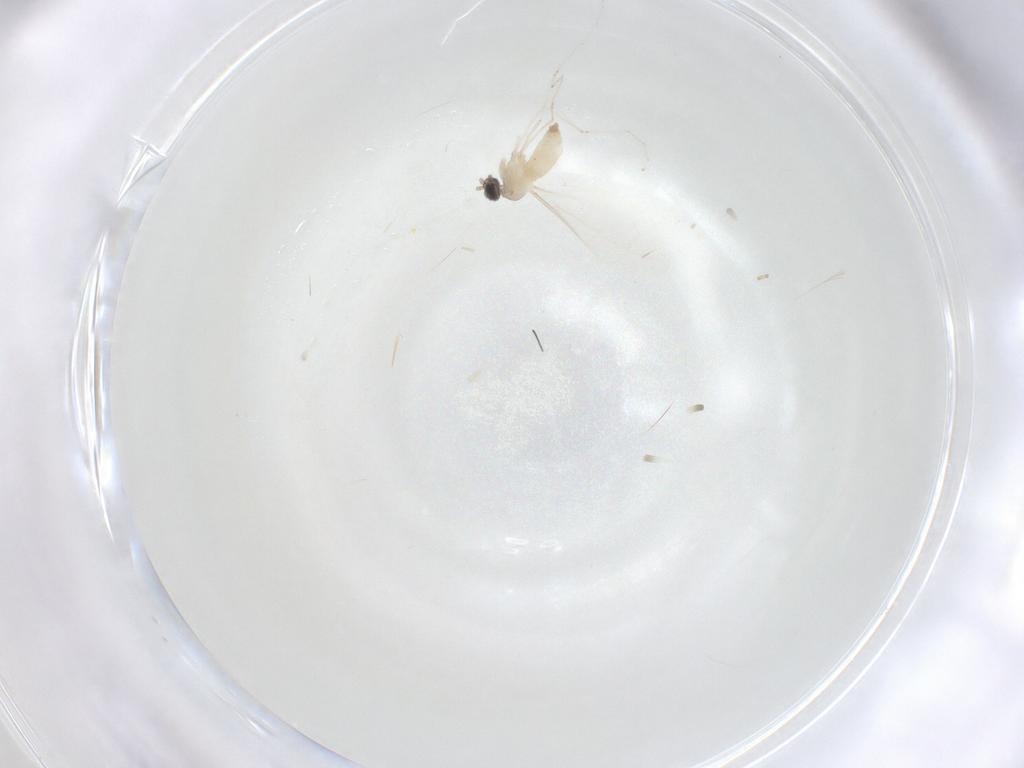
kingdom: Animalia
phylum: Arthropoda
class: Insecta
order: Diptera
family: Cecidomyiidae
